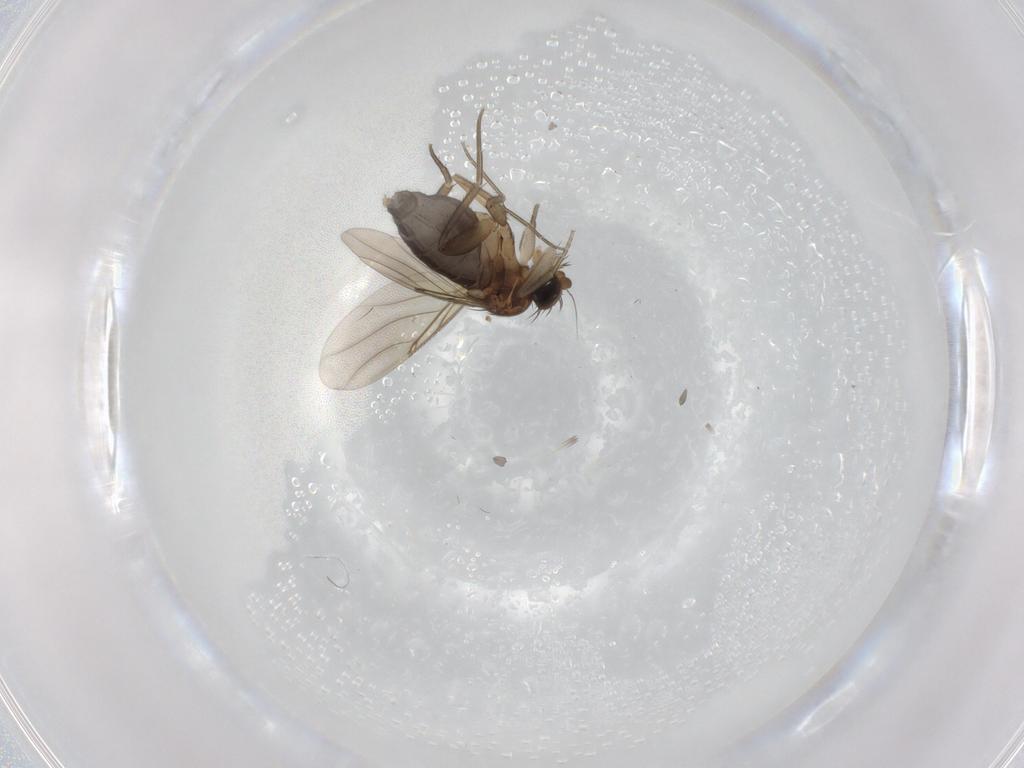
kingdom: Animalia
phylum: Arthropoda
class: Insecta
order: Diptera
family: Phoridae
